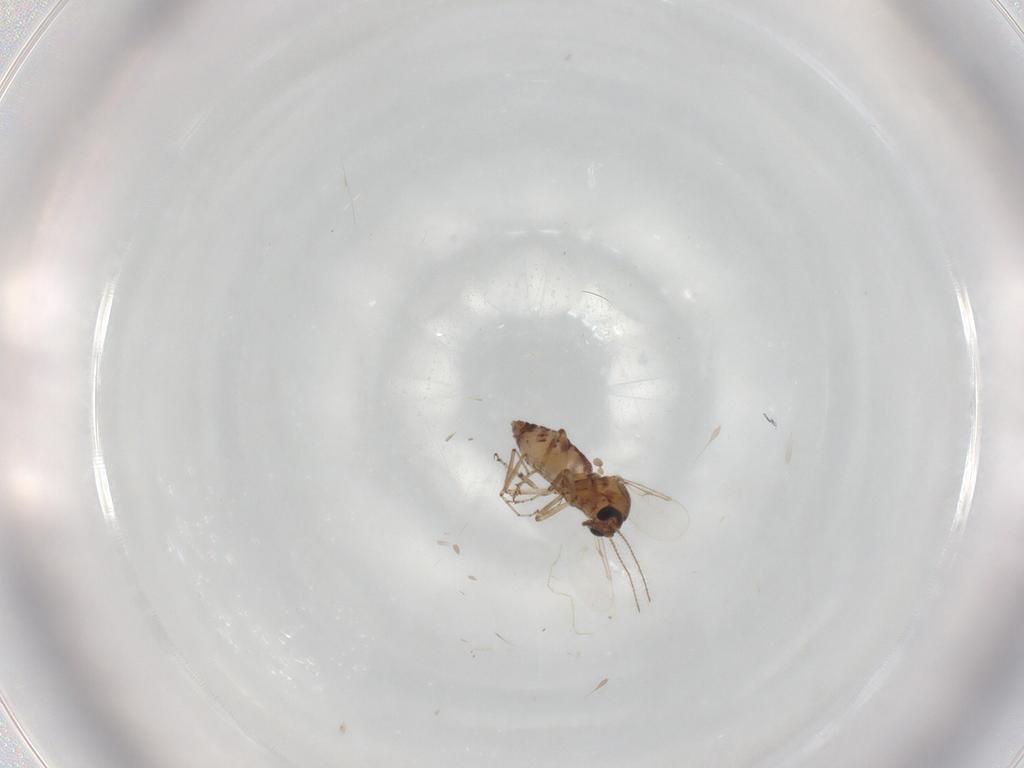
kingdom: Animalia
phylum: Arthropoda
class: Insecta
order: Diptera
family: Ceratopogonidae
